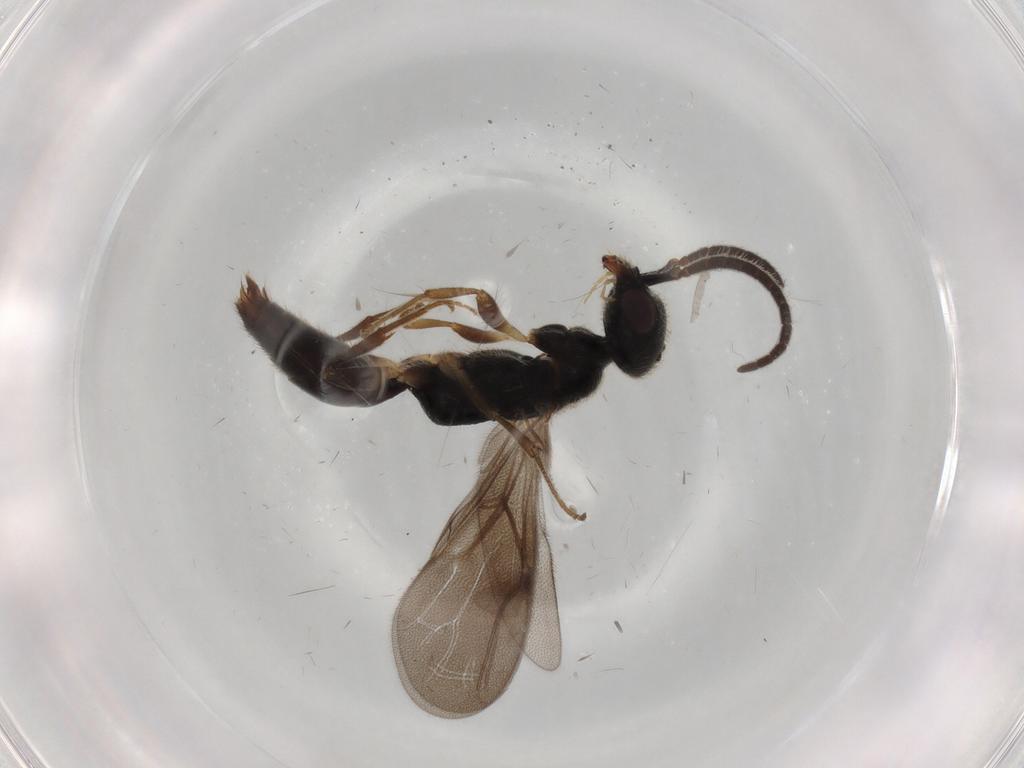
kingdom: Animalia
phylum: Arthropoda
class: Insecta
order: Hymenoptera
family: Bethylidae
